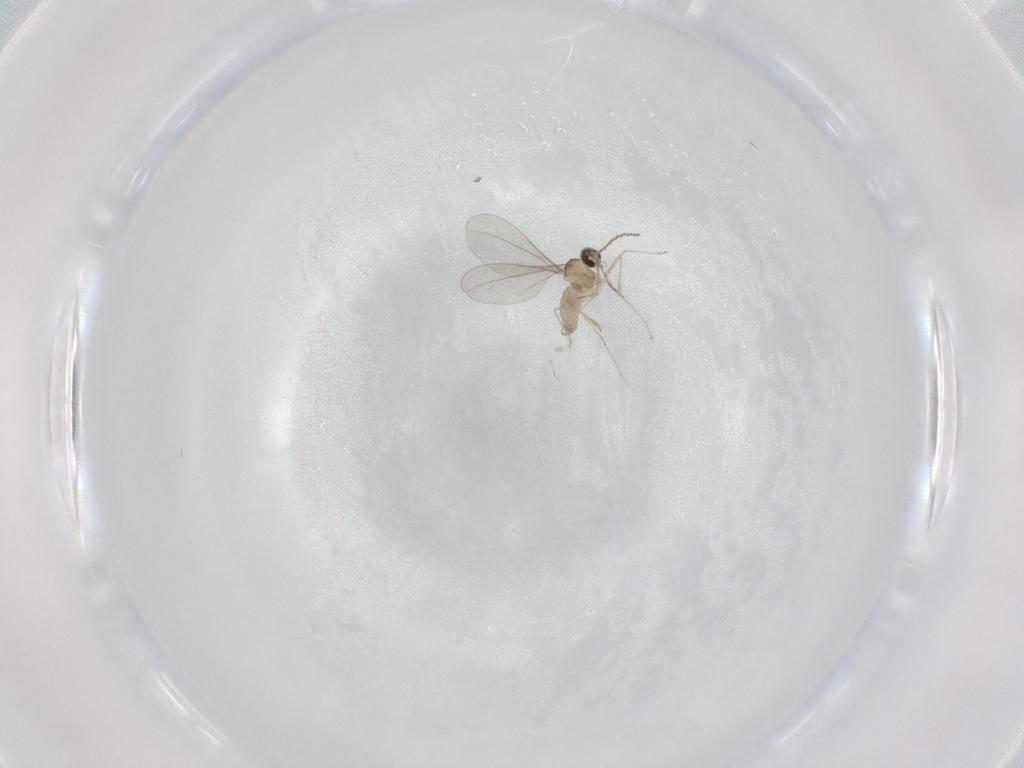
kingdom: Animalia
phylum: Arthropoda
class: Insecta
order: Diptera
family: Cecidomyiidae
